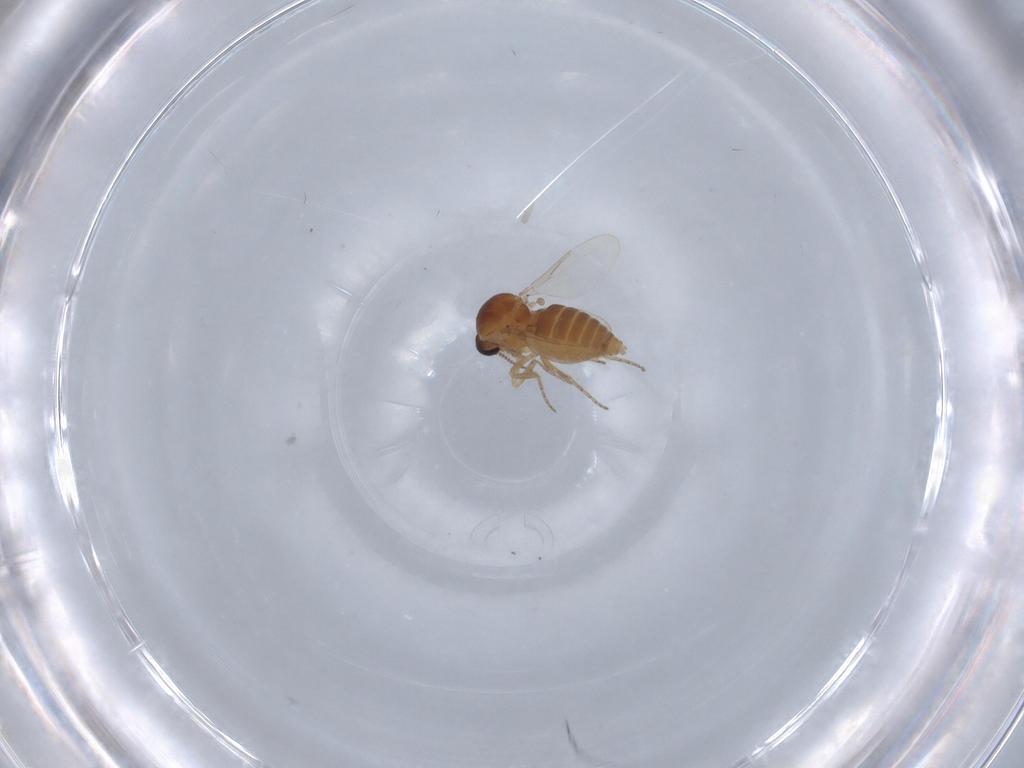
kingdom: Animalia
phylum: Arthropoda
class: Insecta
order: Diptera
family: Ceratopogonidae
